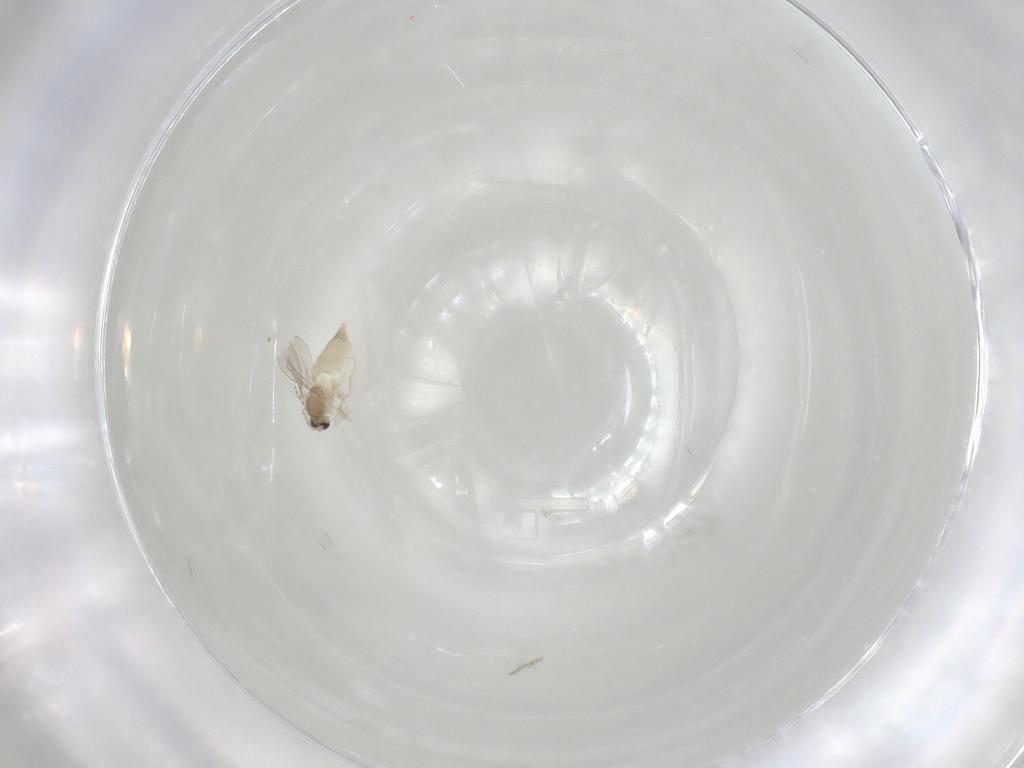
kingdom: Animalia
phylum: Arthropoda
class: Insecta
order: Diptera
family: Cecidomyiidae
